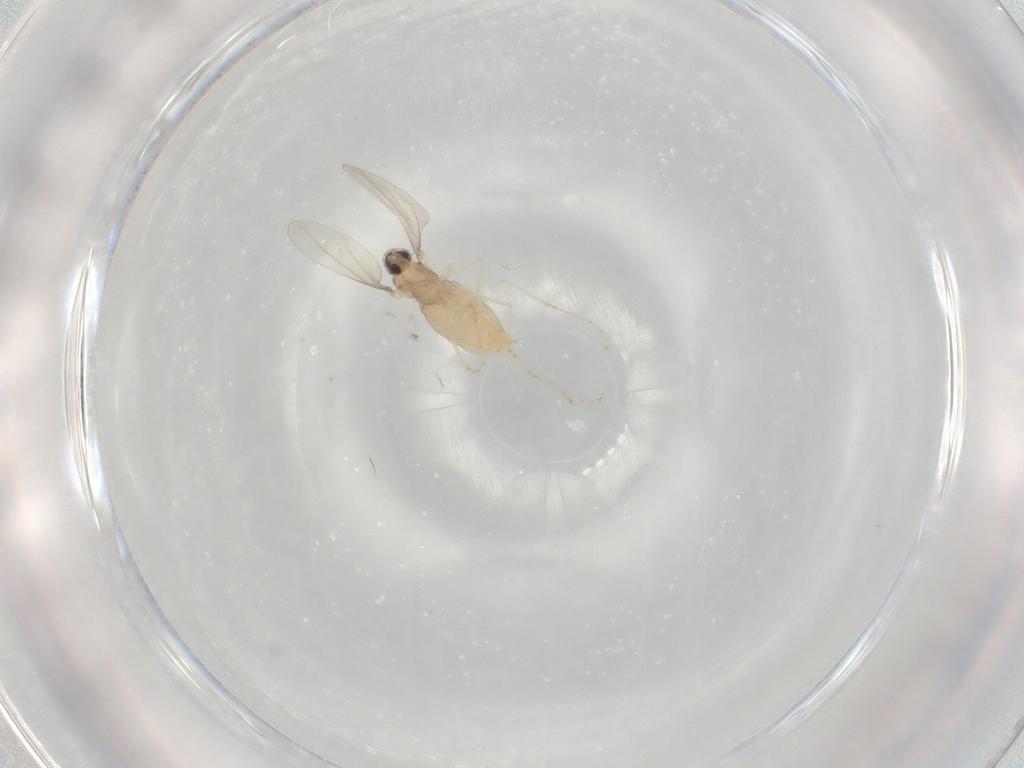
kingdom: Animalia
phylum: Arthropoda
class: Insecta
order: Diptera
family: Cecidomyiidae
